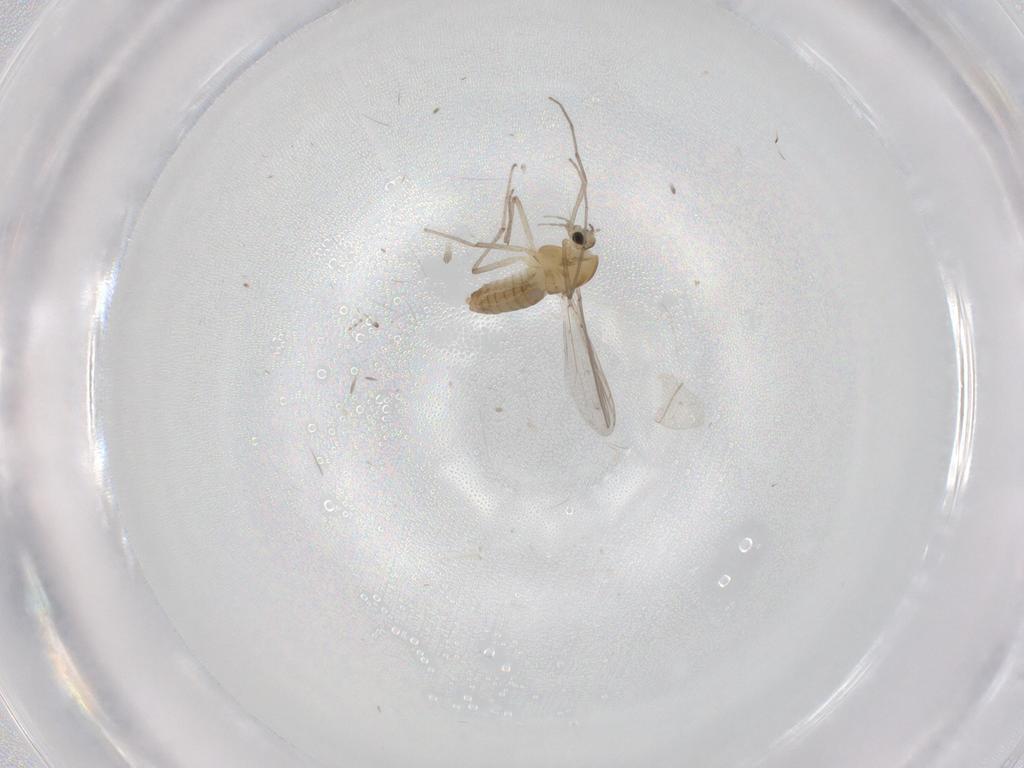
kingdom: Animalia
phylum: Arthropoda
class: Insecta
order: Diptera
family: Chironomidae
